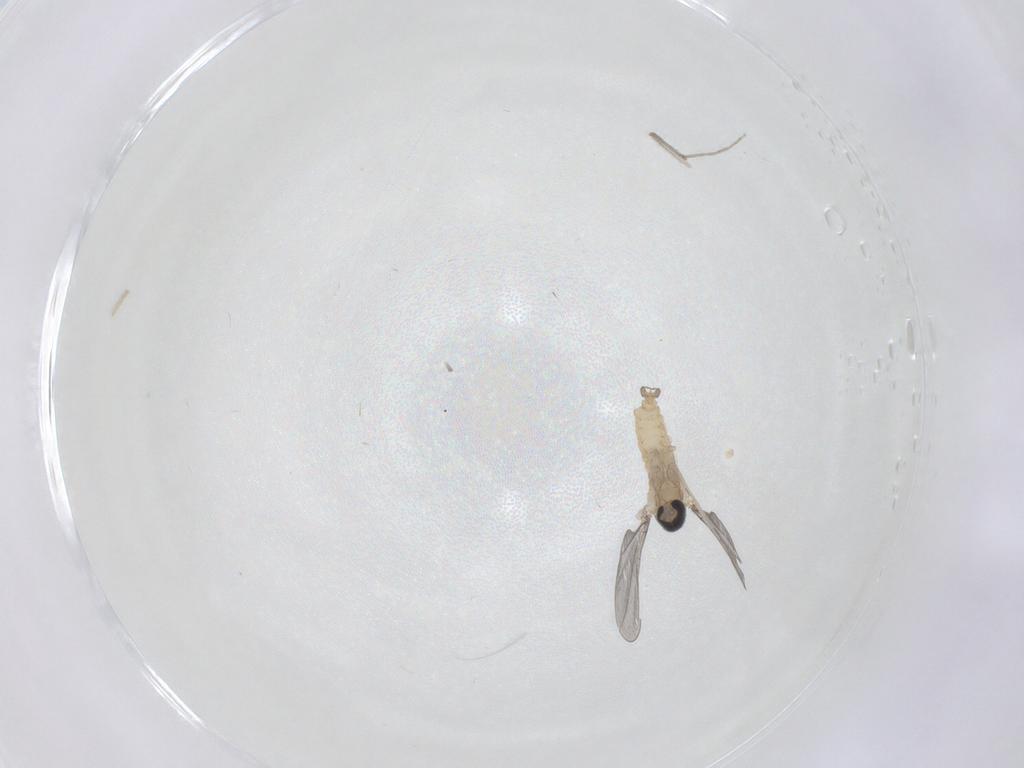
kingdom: Animalia
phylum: Arthropoda
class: Insecta
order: Diptera
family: Cecidomyiidae
